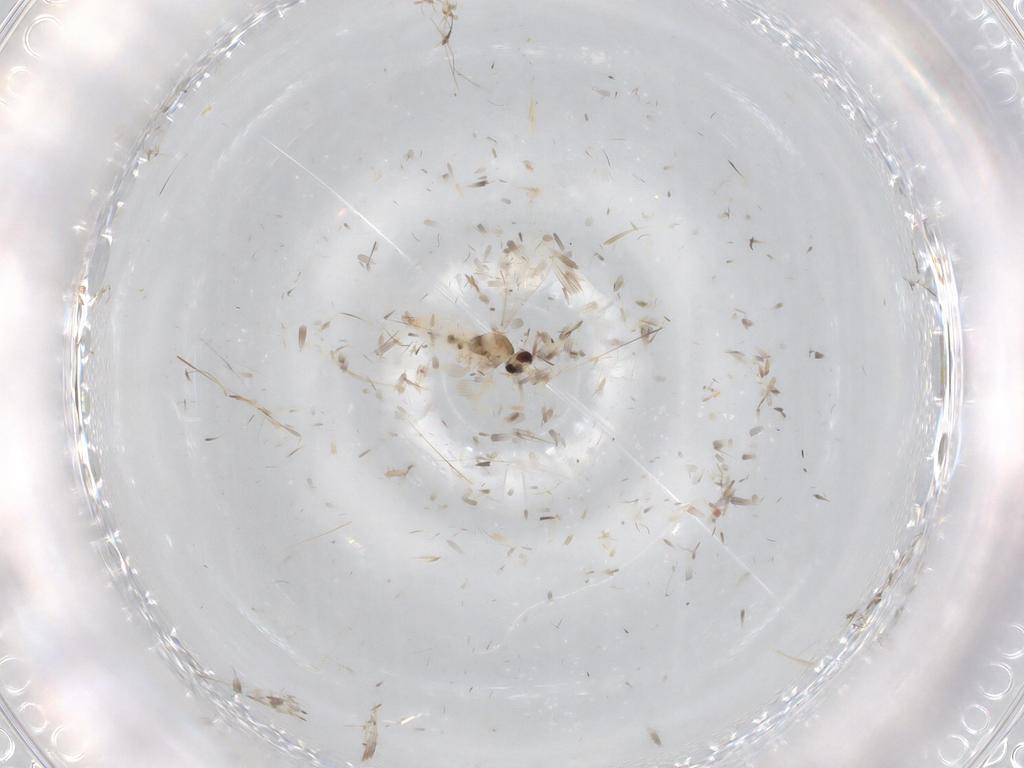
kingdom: Animalia
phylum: Arthropoda
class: Insecta
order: Diptera
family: Cecidomyiidae
